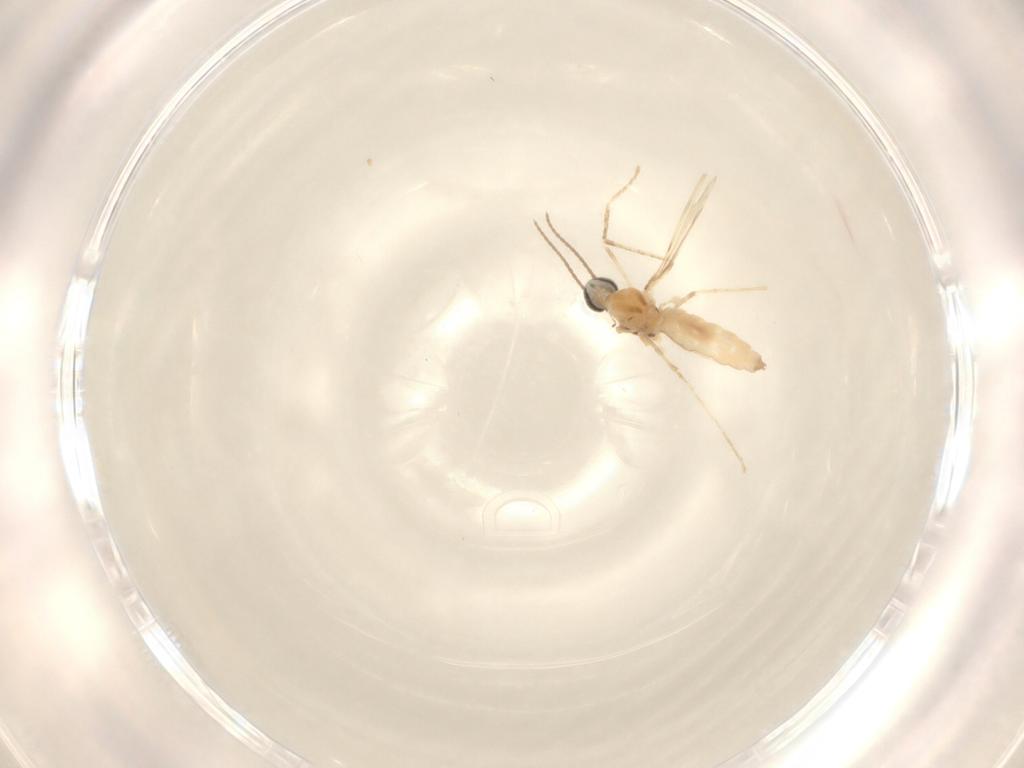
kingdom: Animalia
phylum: Arthropoda
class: Insecta
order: Diptera
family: Cecidomyiidae
